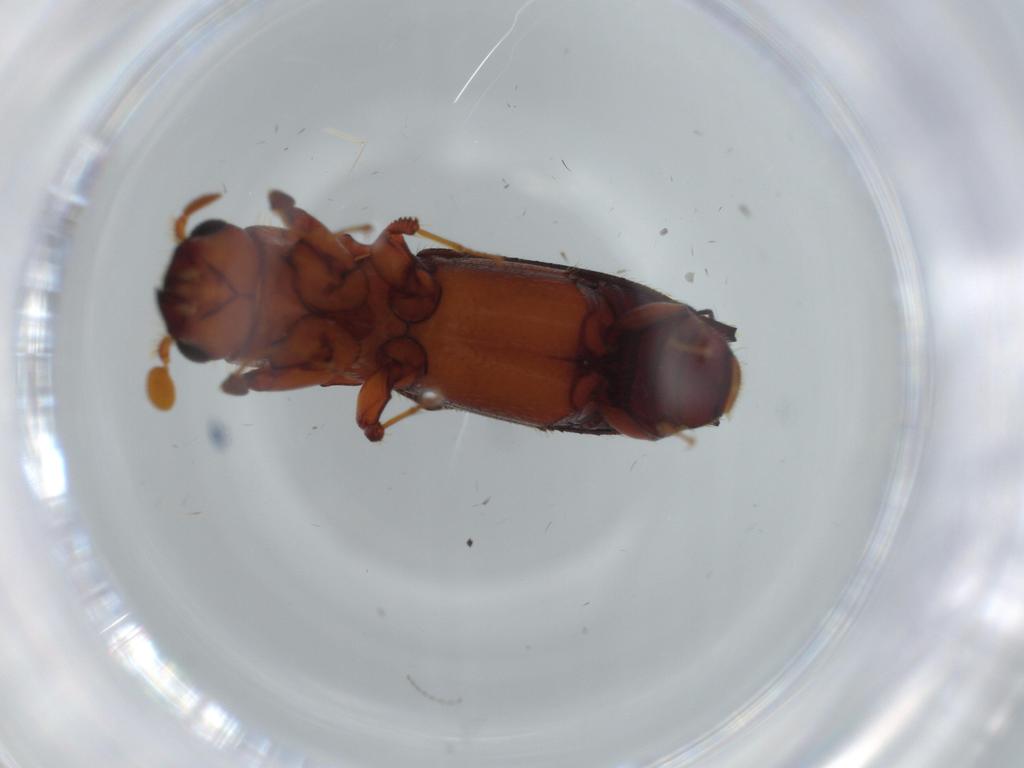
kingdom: Animalia
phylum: Arthropoda
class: Insecta
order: Coleoptera
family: Curculionidae
